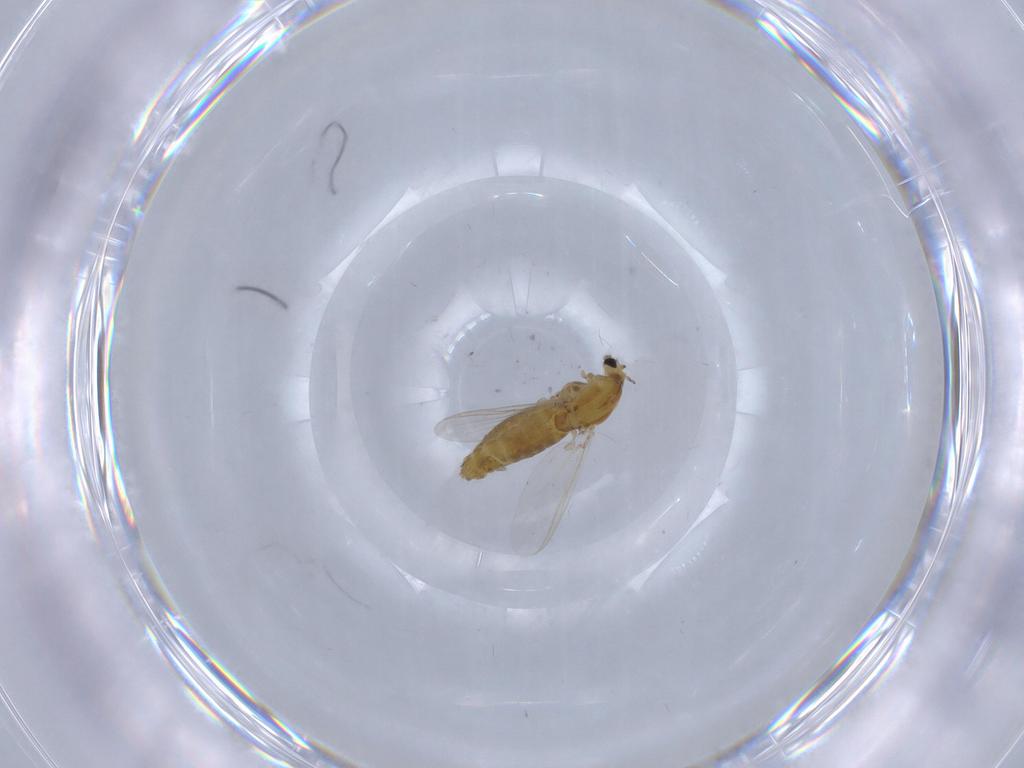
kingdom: Animalia
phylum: Arthropoda
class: Insecta
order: Diptera
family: Chironomidae
